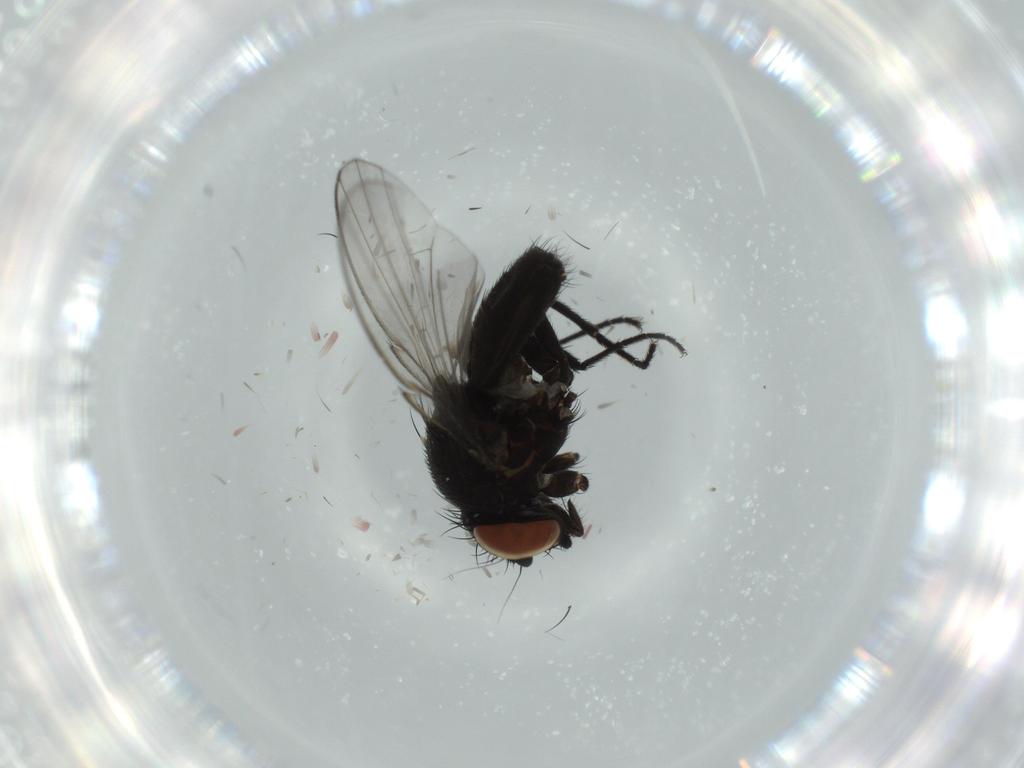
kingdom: Animalia
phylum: Arthropoda
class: Insecta
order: Diptera
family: Milichiidae
